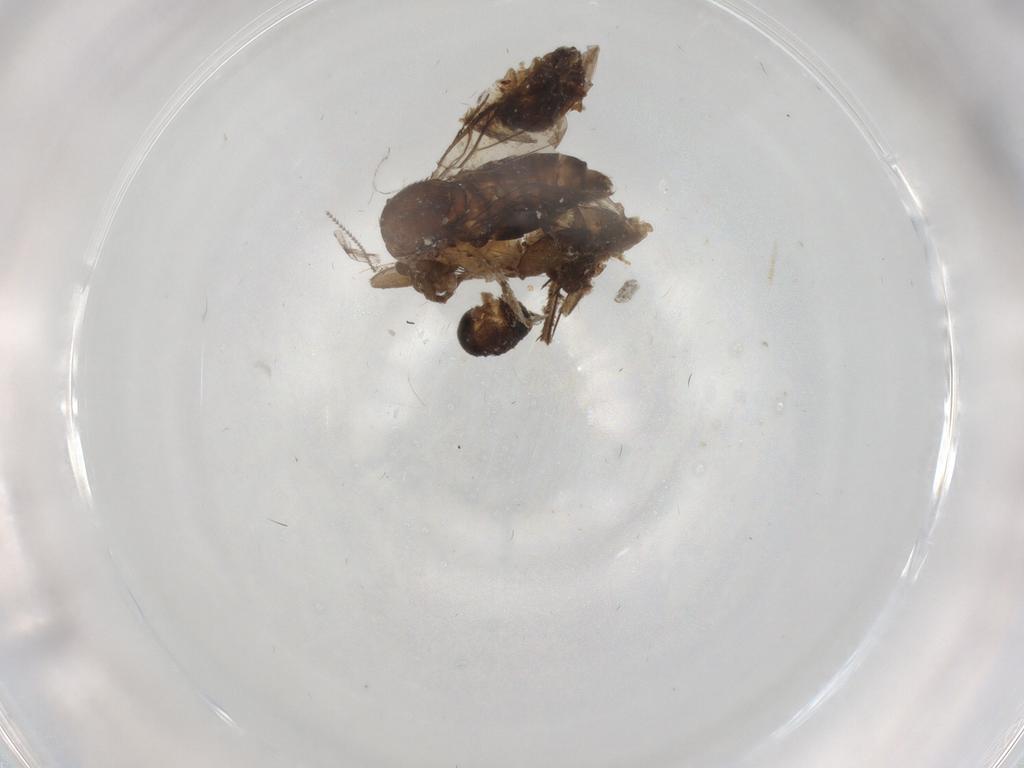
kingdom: Animalia
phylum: Arthropoda
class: Insecta
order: Diptera
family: Phoridae
